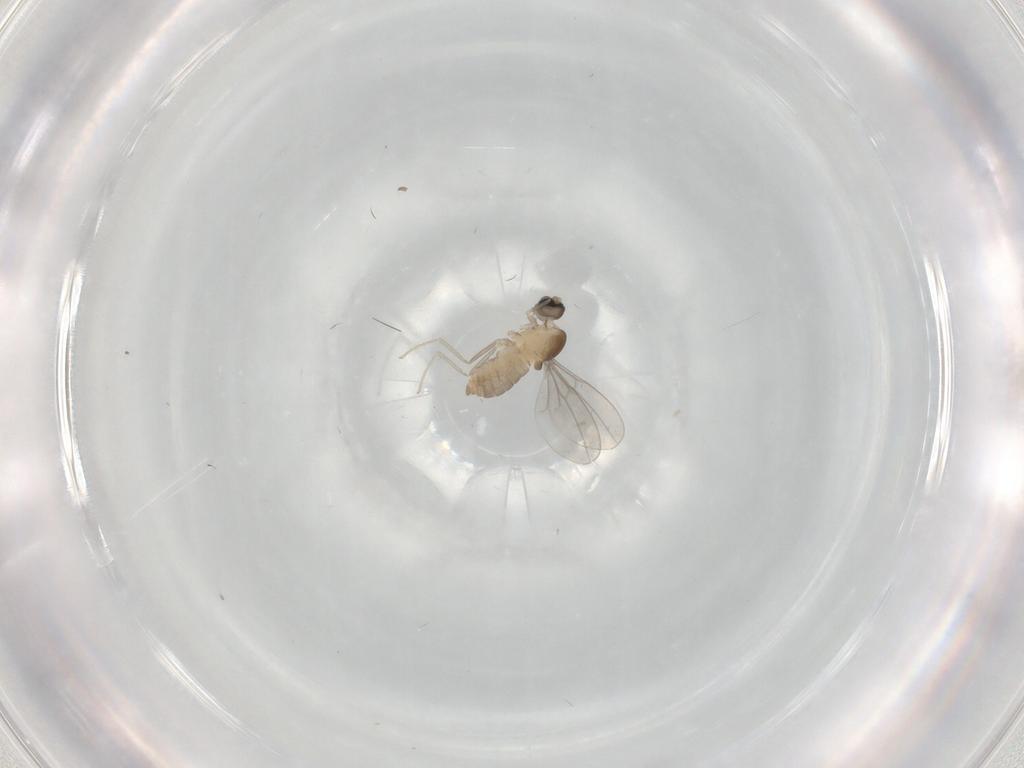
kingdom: Animalia
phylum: Arthropoda
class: Insecta
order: Diptera
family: Cecidomyiidae
